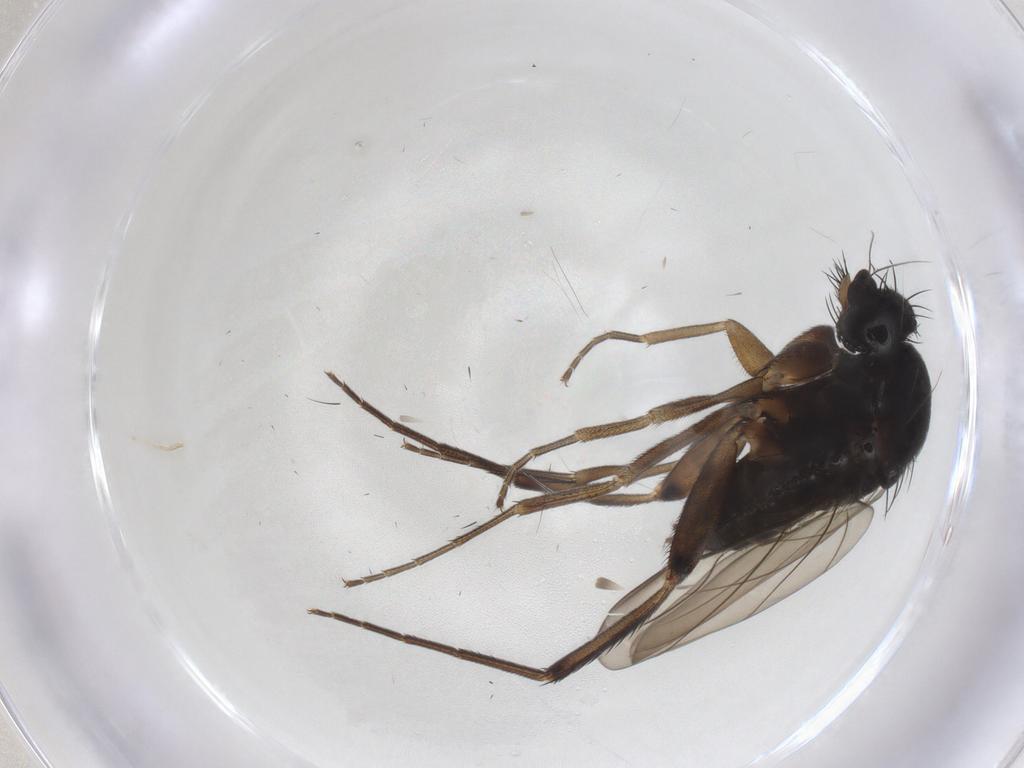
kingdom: Animalia
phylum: Arthropoda
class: Insecta
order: Diptera
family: Phoridae
